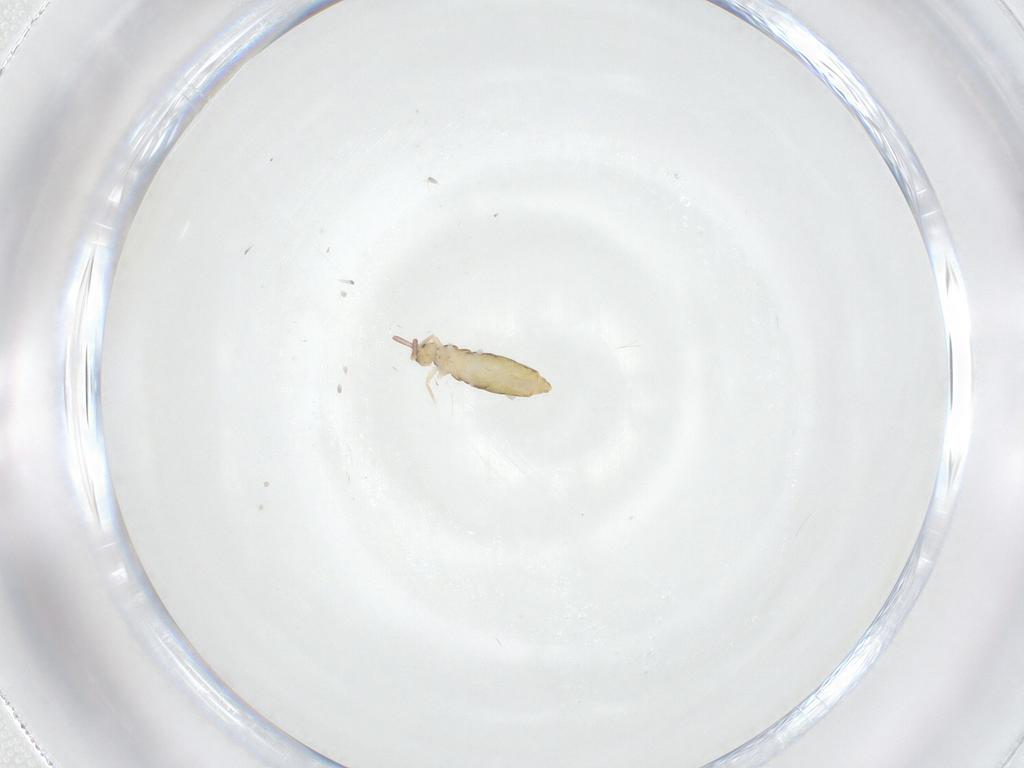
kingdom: Animalia
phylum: Arthropoda
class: Collembola
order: Entomobryomorpha
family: Entomobryidae
